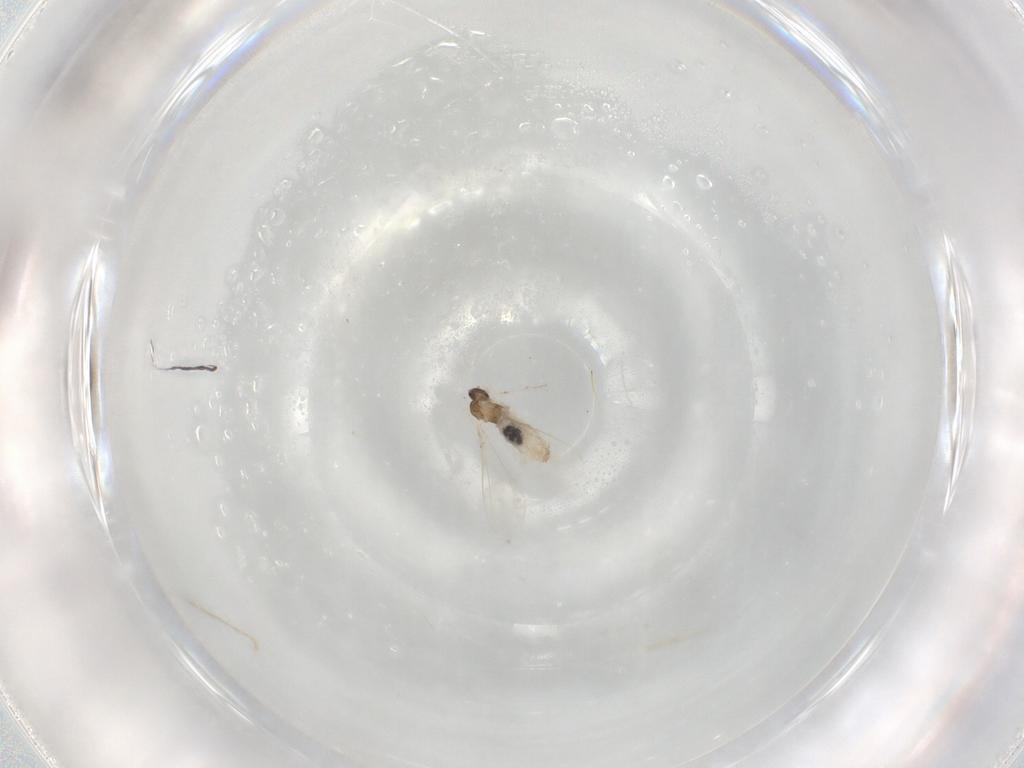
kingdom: Animalia
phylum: Arthropoda
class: Insecta
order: Diptera
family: Cecidomyiidae
